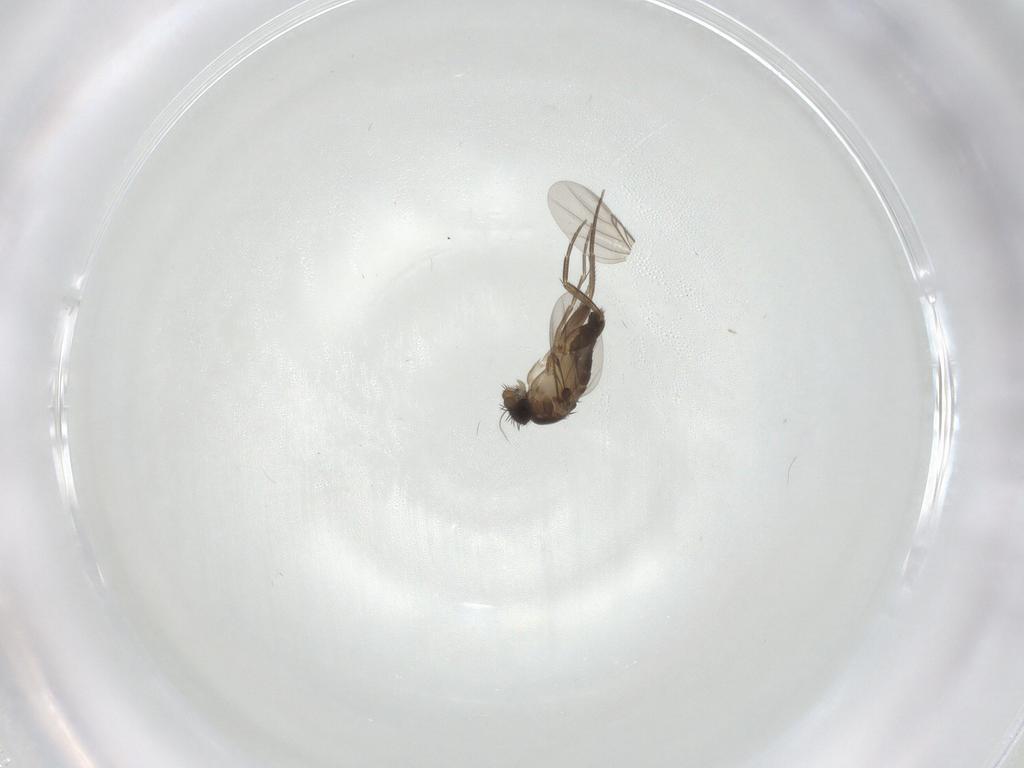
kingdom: Animalia
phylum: Arthropoda
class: Insecta
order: Diptera
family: Phoridae
